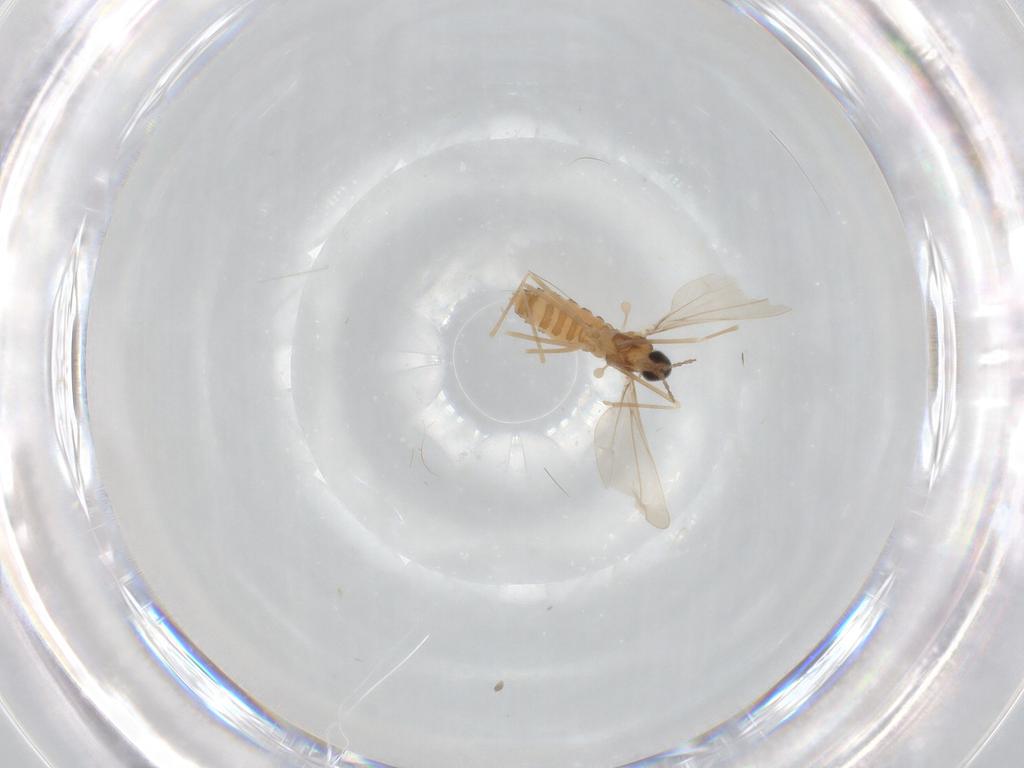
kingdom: Animalia
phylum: Arthropoda
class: Insecta
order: Diptera
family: Cecidomyiidae
